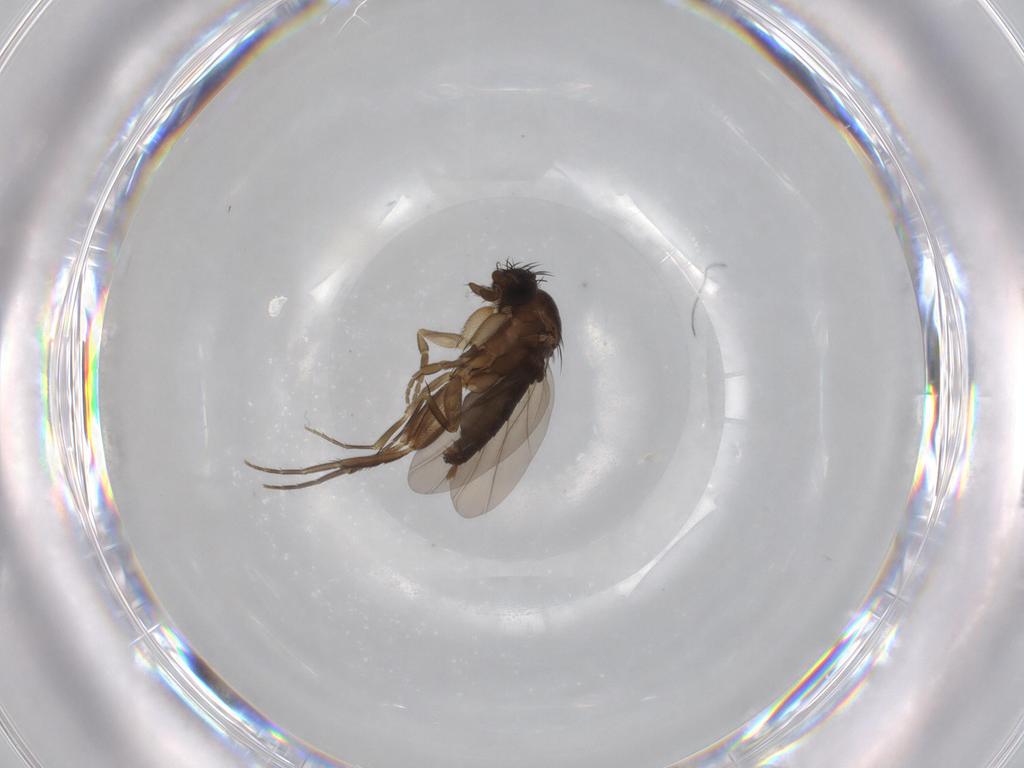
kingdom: Animalia
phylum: Arthropoda
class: Insecta
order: Diptera
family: Phoridae
